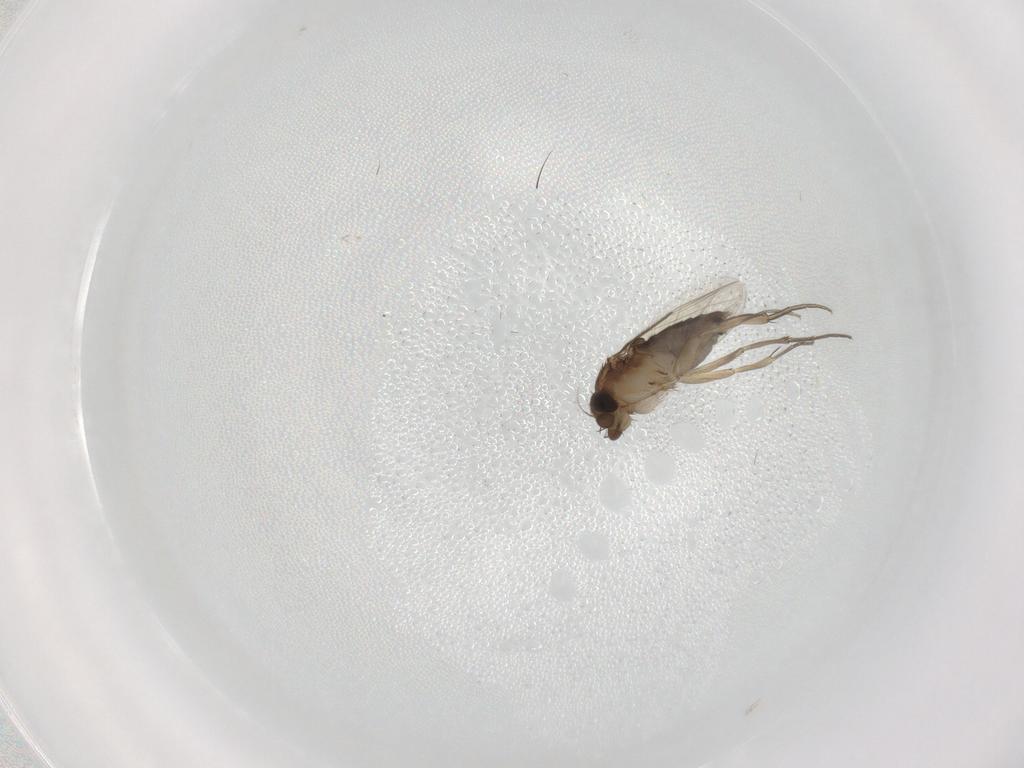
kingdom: Animalia
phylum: Arthropoda
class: Insecta
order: Diptera
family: Phoridae
